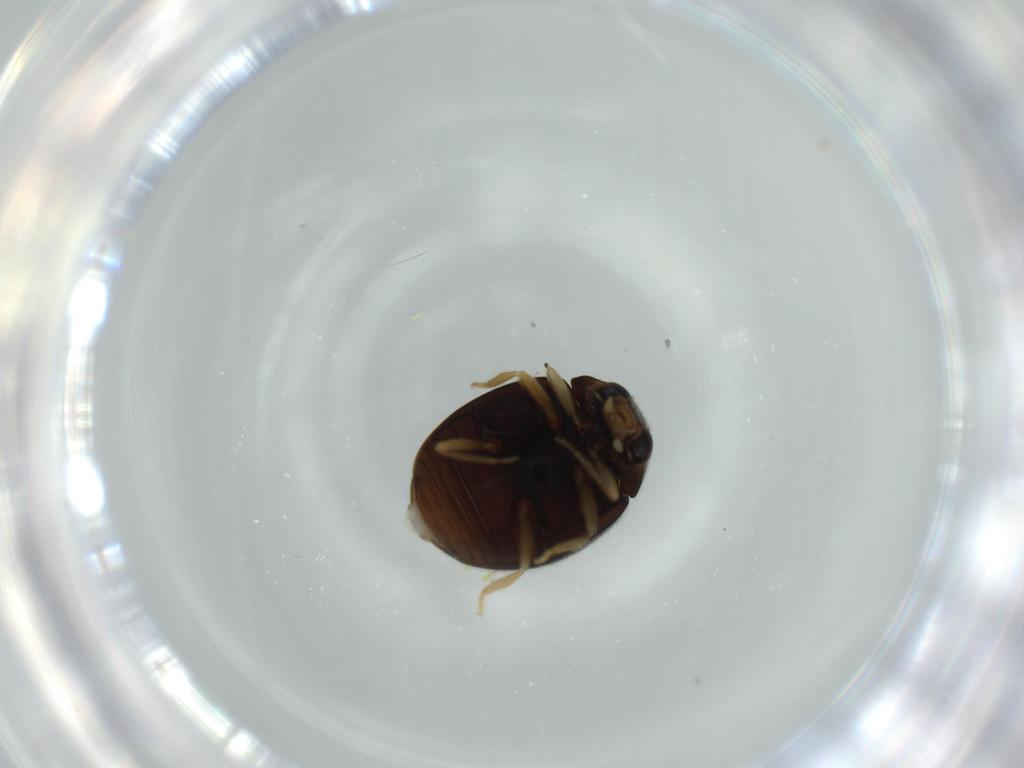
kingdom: Animalia
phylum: Arthropoda
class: Insecta
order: Coleoptera
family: Coccinellidae
